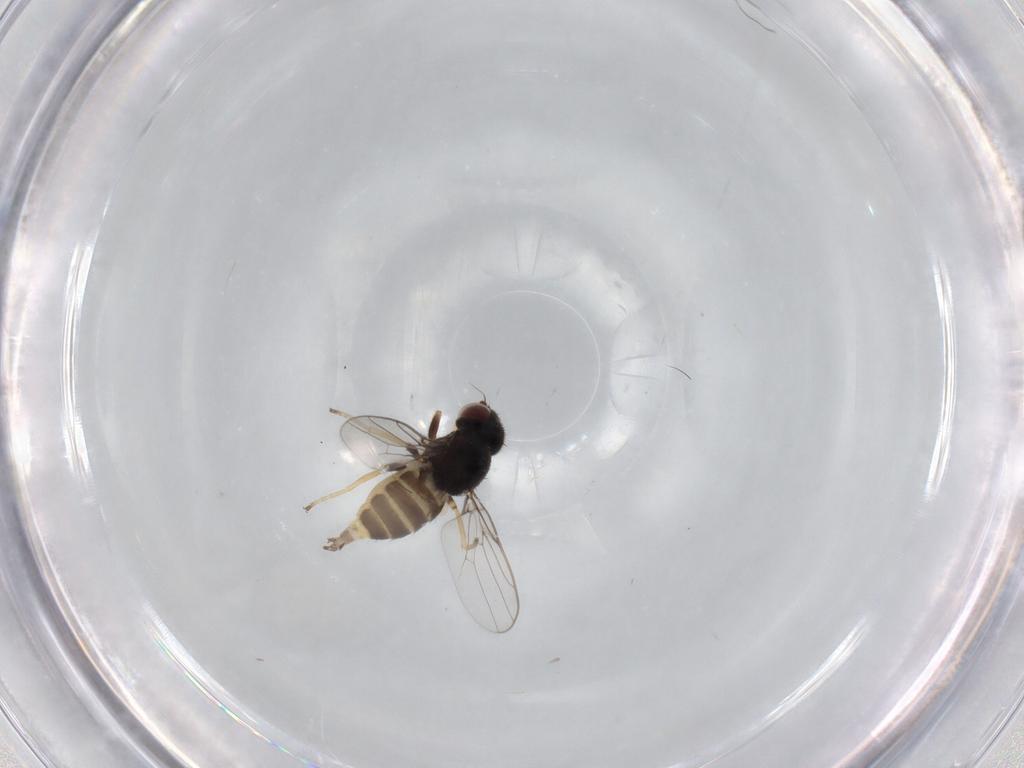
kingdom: Animalia
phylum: Arthropoda
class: Insecta
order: Diptera
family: Chloropidae
